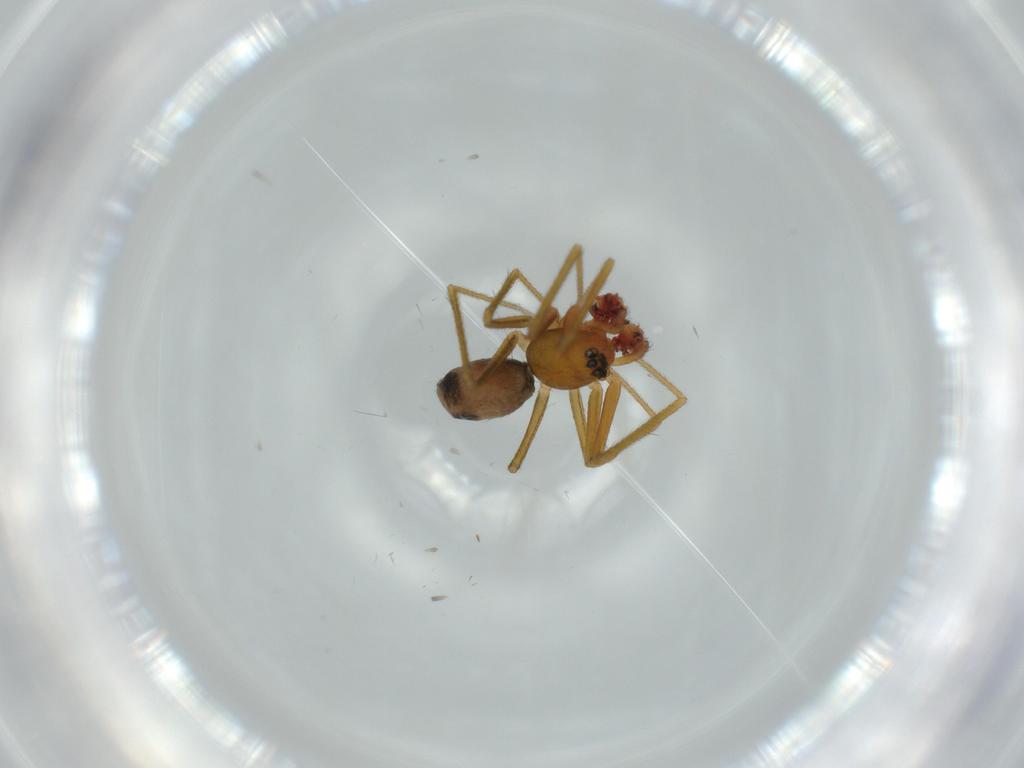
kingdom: Animalia
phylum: Arthropoda
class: Arachnida
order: Araneae
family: Linyphiidae
